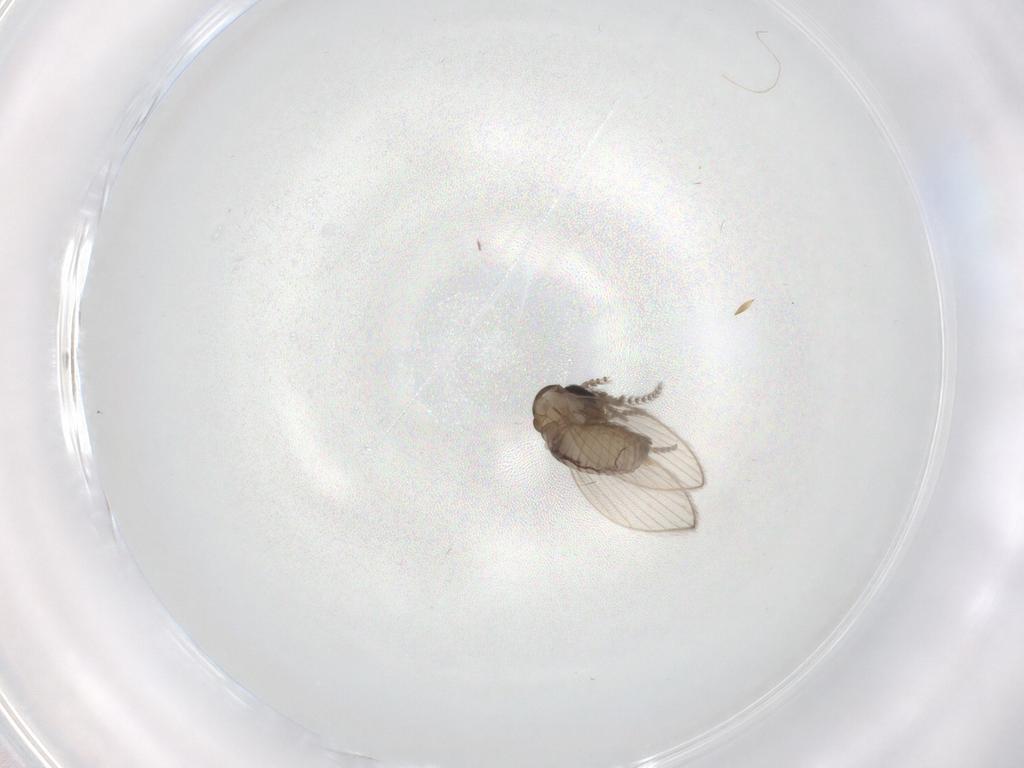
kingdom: Animalia
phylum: Arthropoda
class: Insecta
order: Diptera
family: Psychodidae
